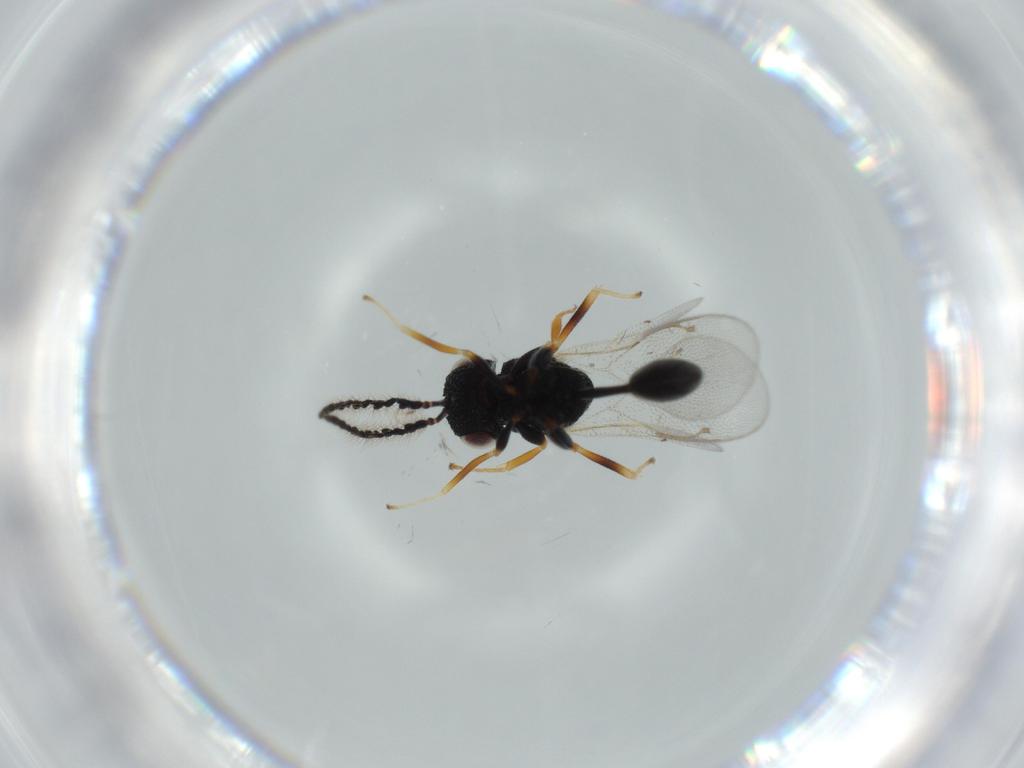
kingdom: Animalia
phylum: Arthropoda
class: Insecta
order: Hymenoptera
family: Eurytomidae
